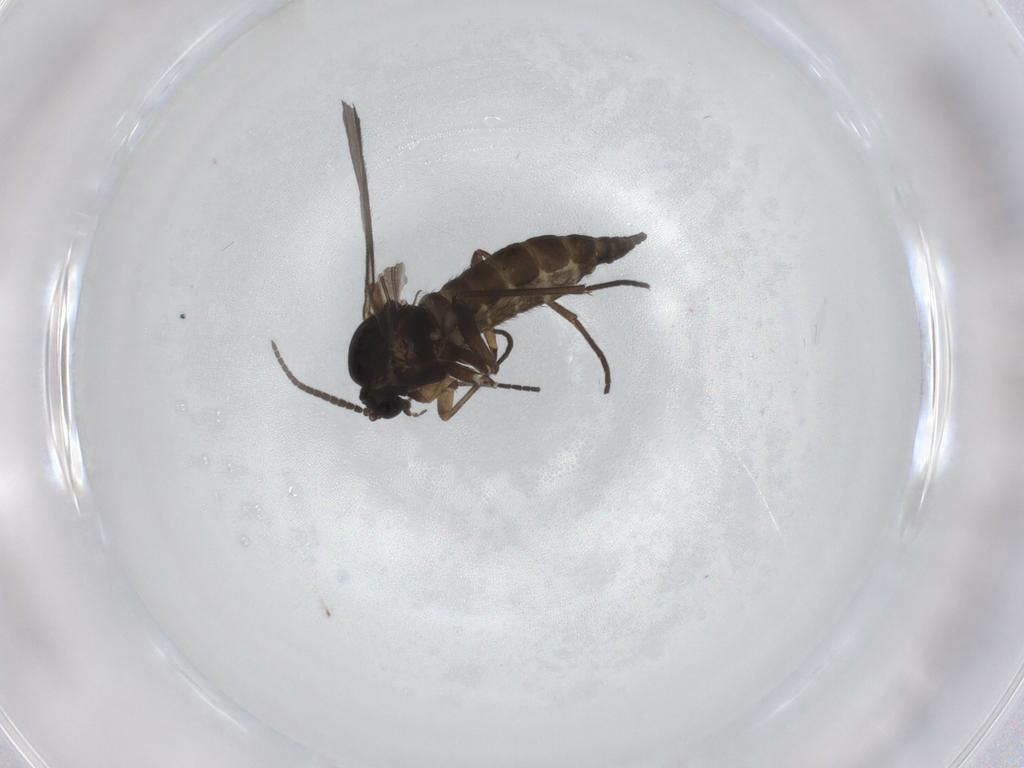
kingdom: Animalia
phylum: Arthropoda
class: Insecta
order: Diptera
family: Sciaridae
